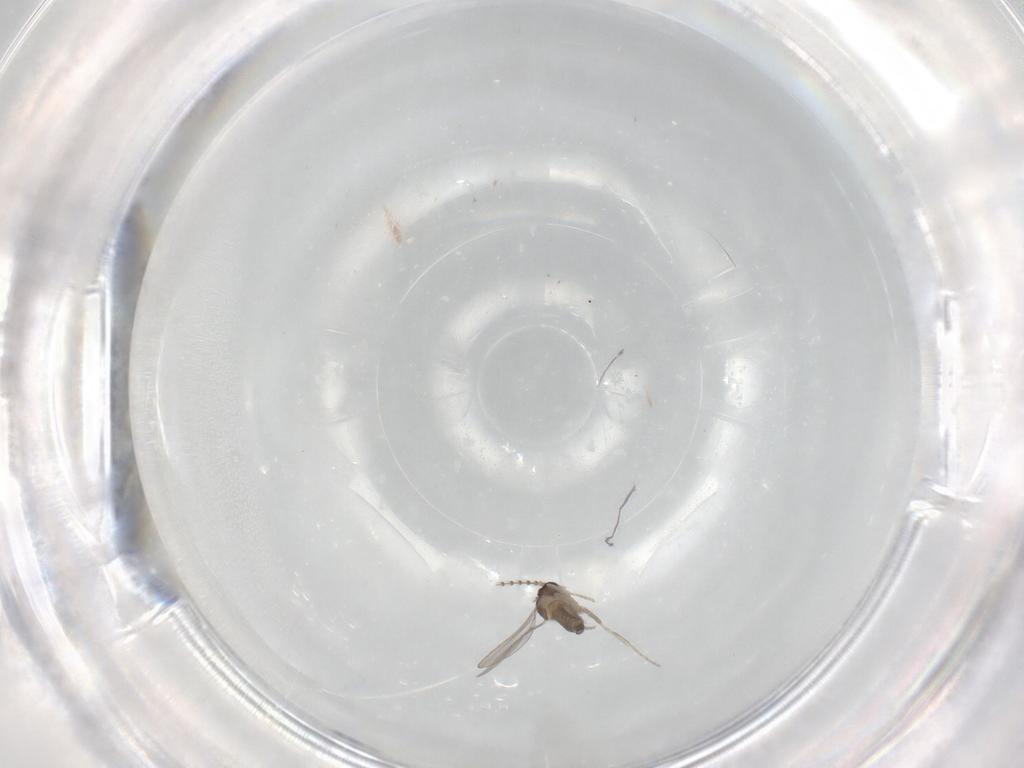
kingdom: Animalia
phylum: Arthropoda
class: Insecta
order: Diptera
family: Cecidomyiidae
